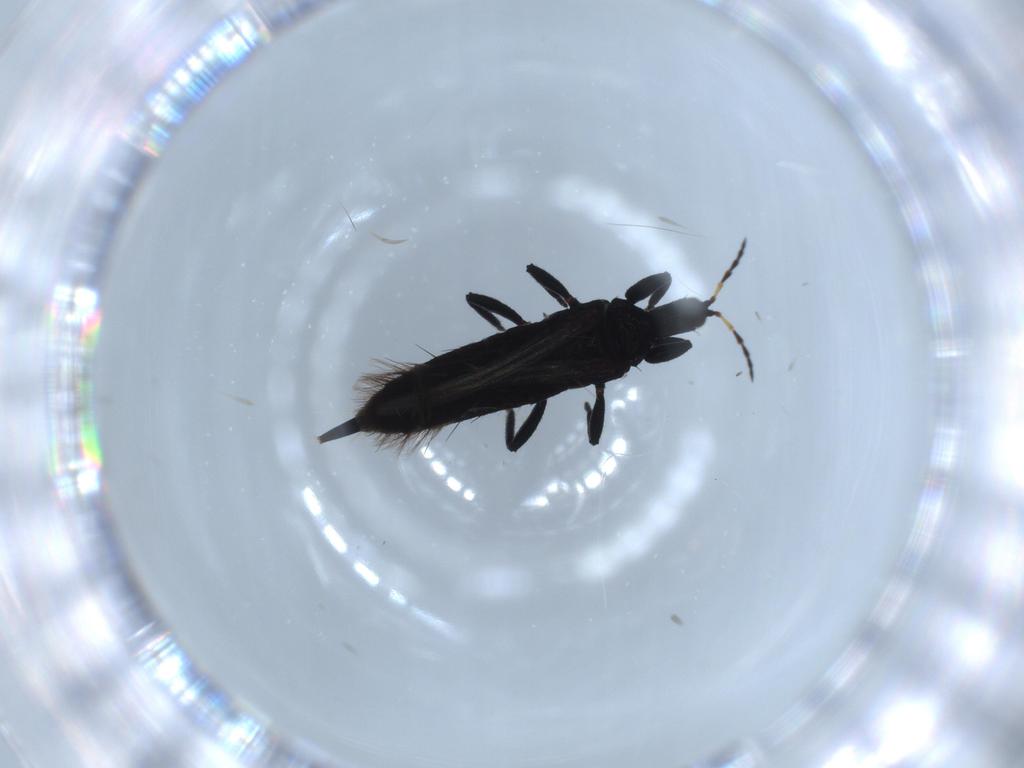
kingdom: Animalia
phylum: Arthropoda
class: Insecta
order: Thysanoptera
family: Phlaeothripidae
